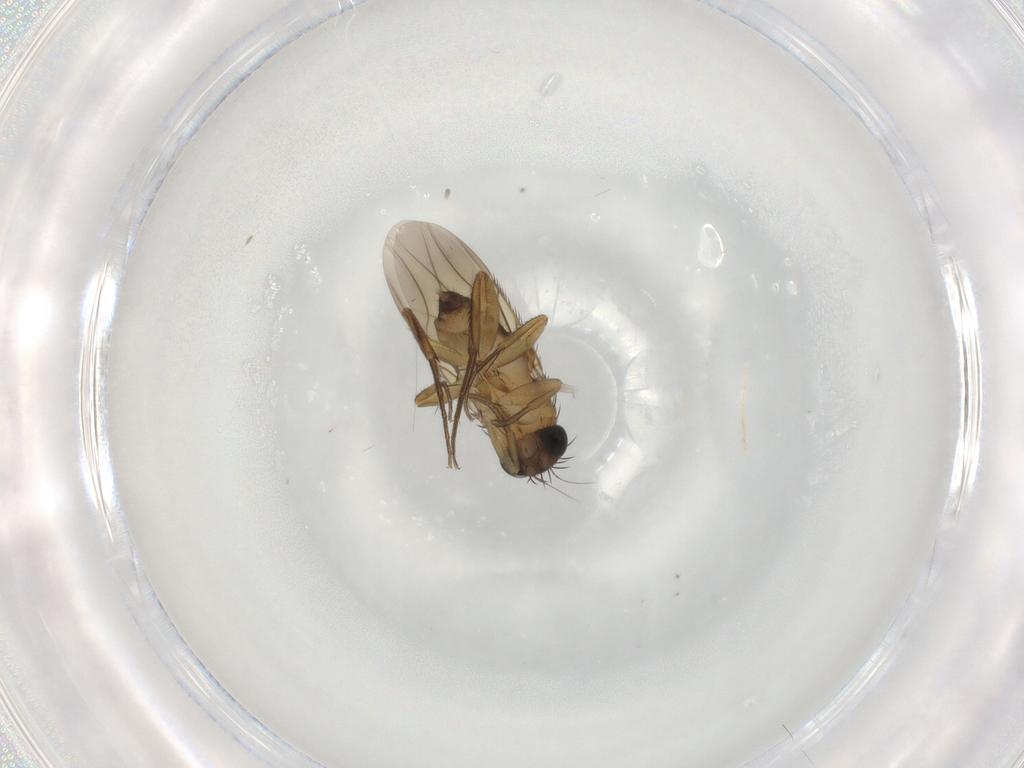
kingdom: Animalia
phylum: Arthropoda
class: Insecta
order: Diptera
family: Phoridae
